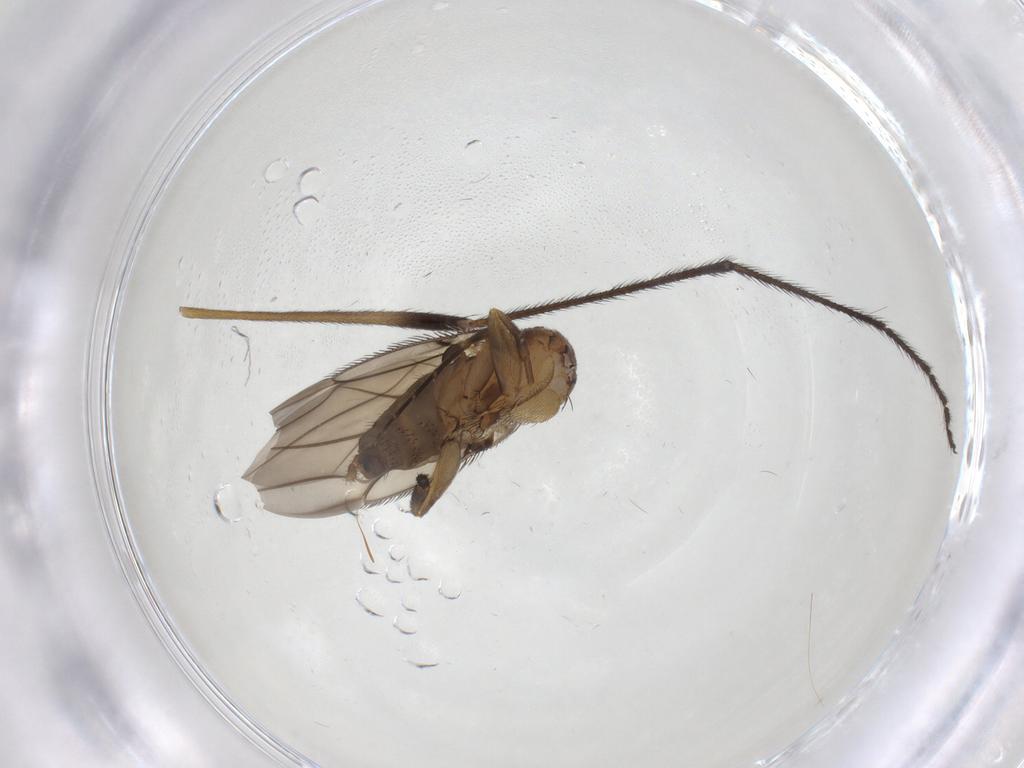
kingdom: Animalia
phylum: Arthropoda
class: Insecta
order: Diptera
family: Limoniidae
